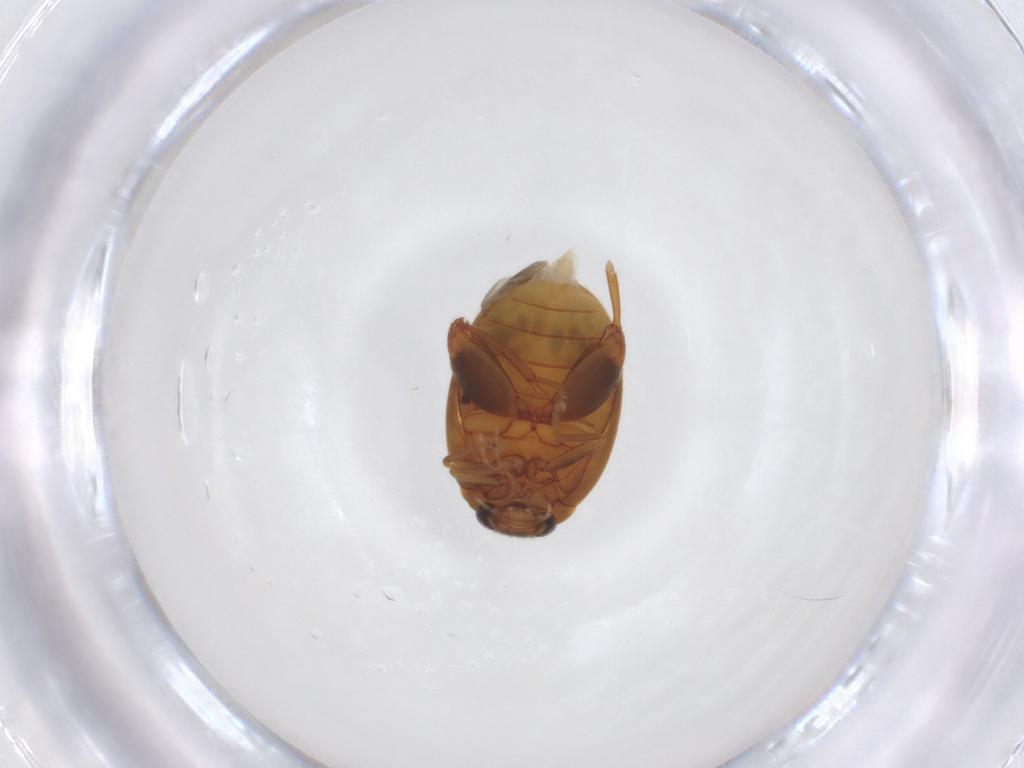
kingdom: Animalia
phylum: Arthropoda
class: Insecta
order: Coleoptera
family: Scirtidae
